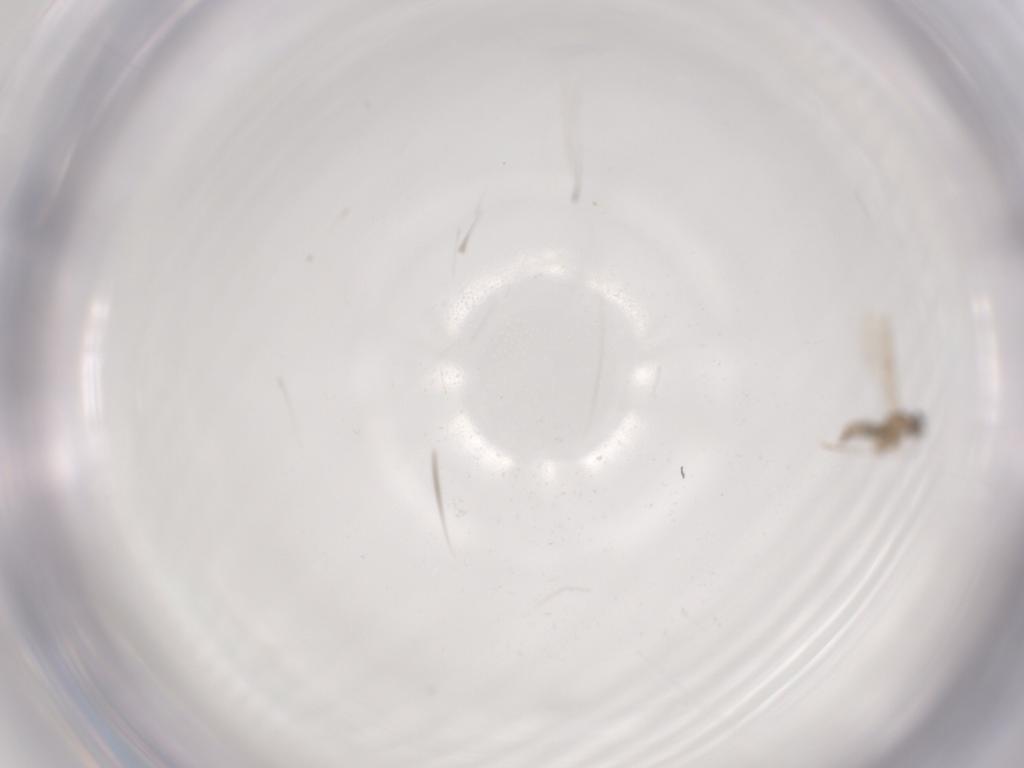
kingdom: Animalia
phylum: Arthropoda
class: Insecta
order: Diptera
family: Cecidomyiidae
